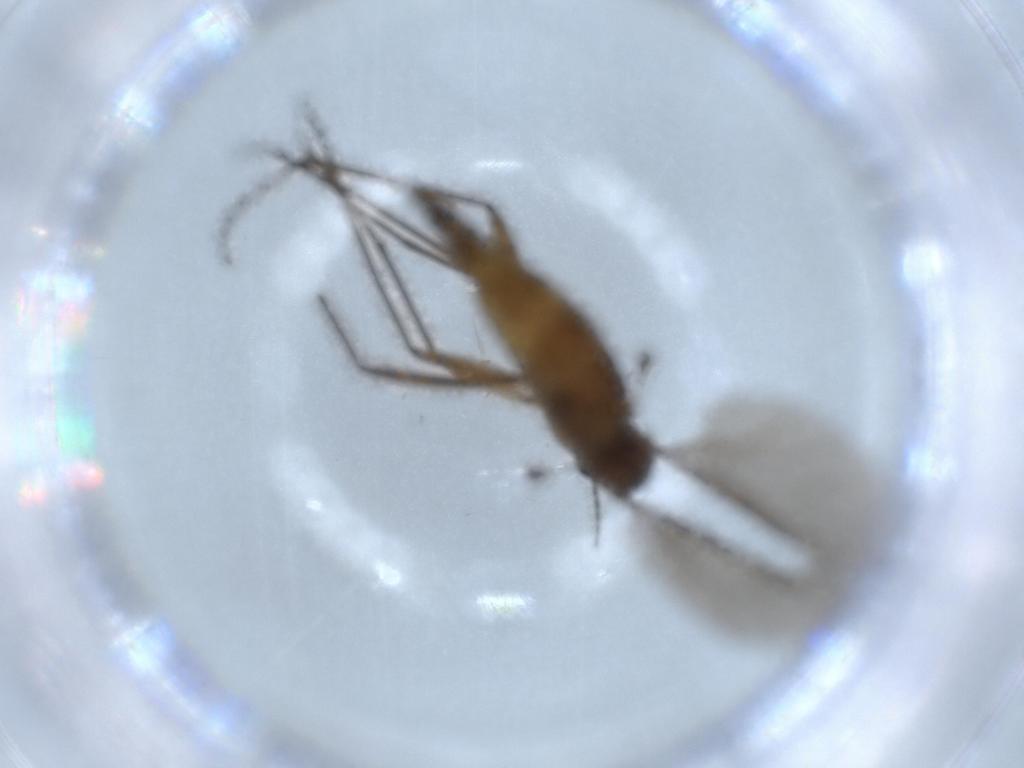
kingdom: Animalia
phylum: Arthropoda
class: Insecta
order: Diptera
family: Sciaridae
